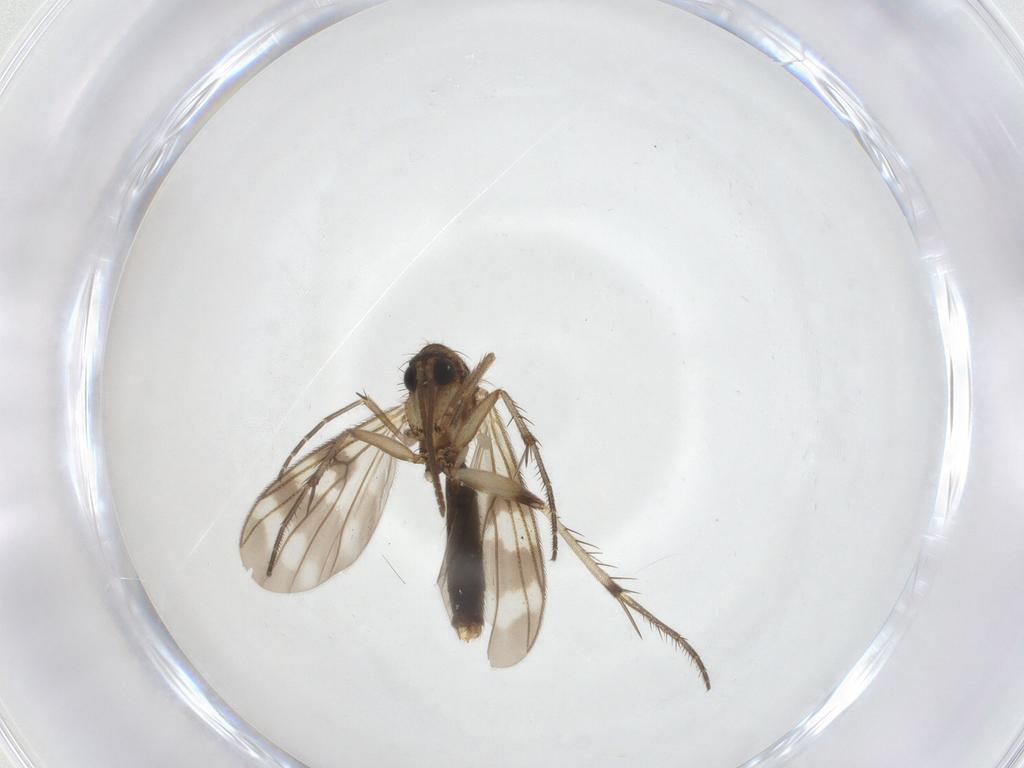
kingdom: Animalia
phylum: Arthropoda
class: Insecta
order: Diptera
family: Mycetophilidae
